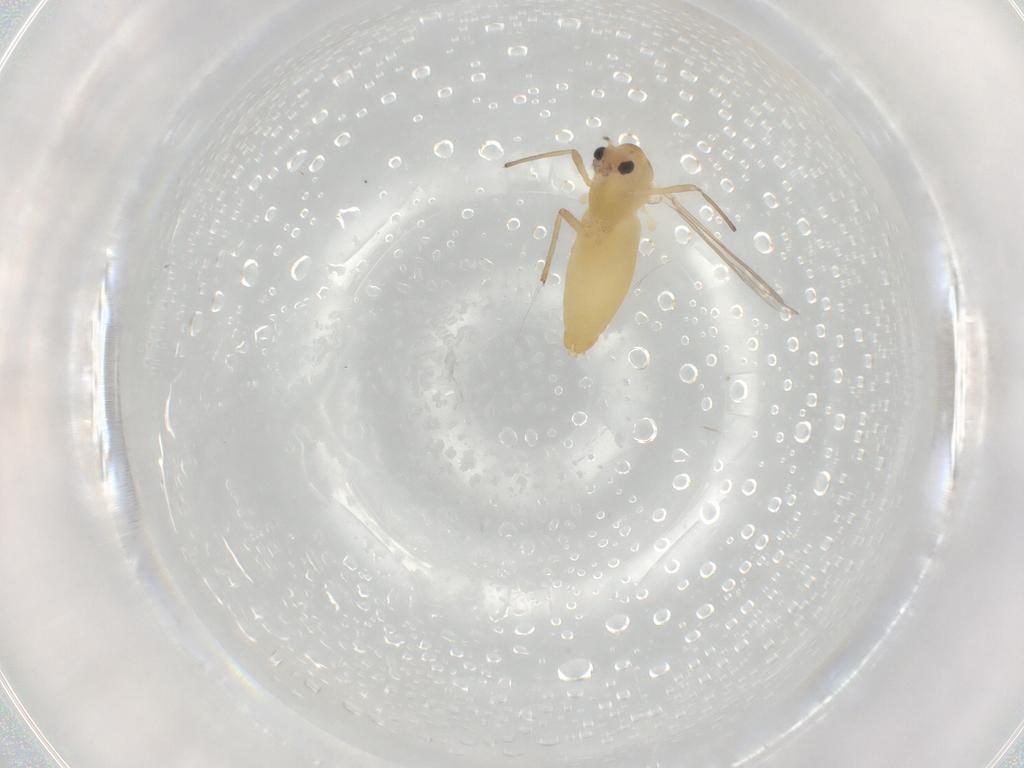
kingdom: Animalia
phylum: Arthropoda
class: Insecta
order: Diptera
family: Chironomidae
